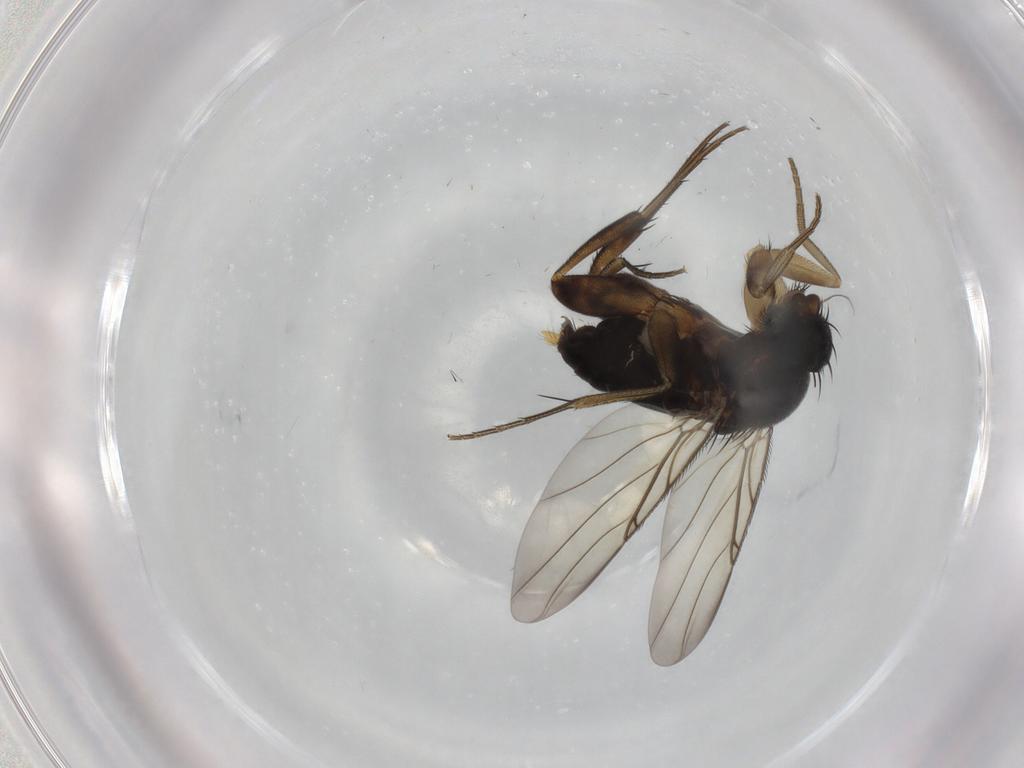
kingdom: Animalia
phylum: Arthropoda
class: Insecta
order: Diptera
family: Phoridae
